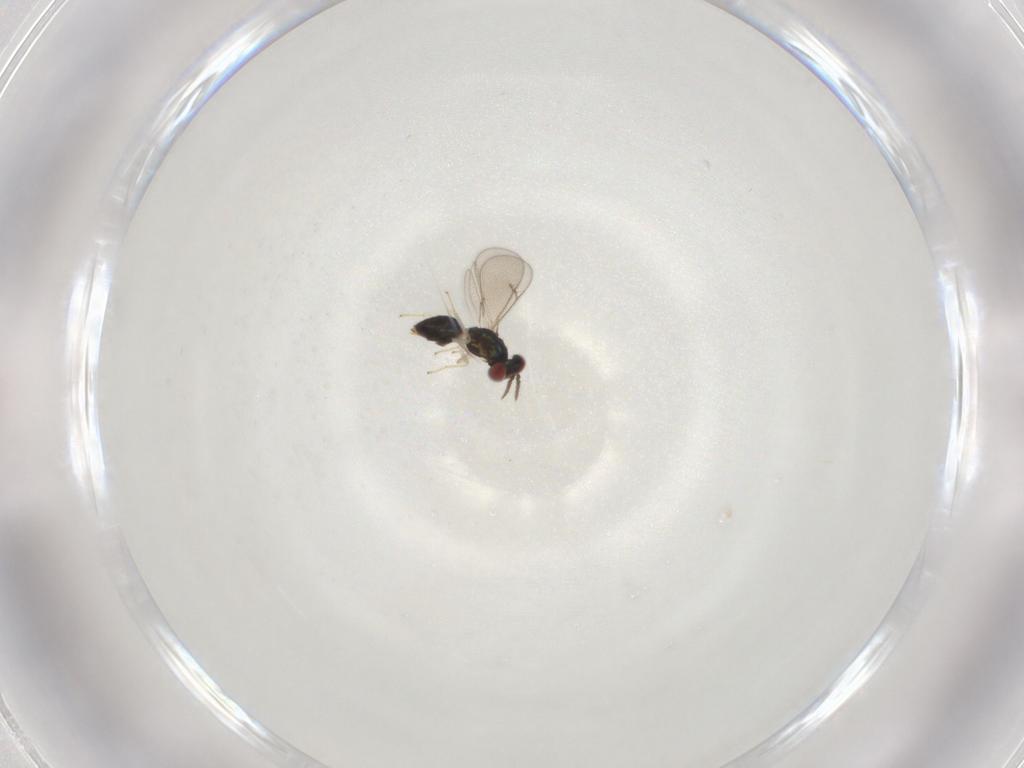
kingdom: Animalia
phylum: Arthropoda
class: Insecta
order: Hymenoptera
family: Eulophidae
